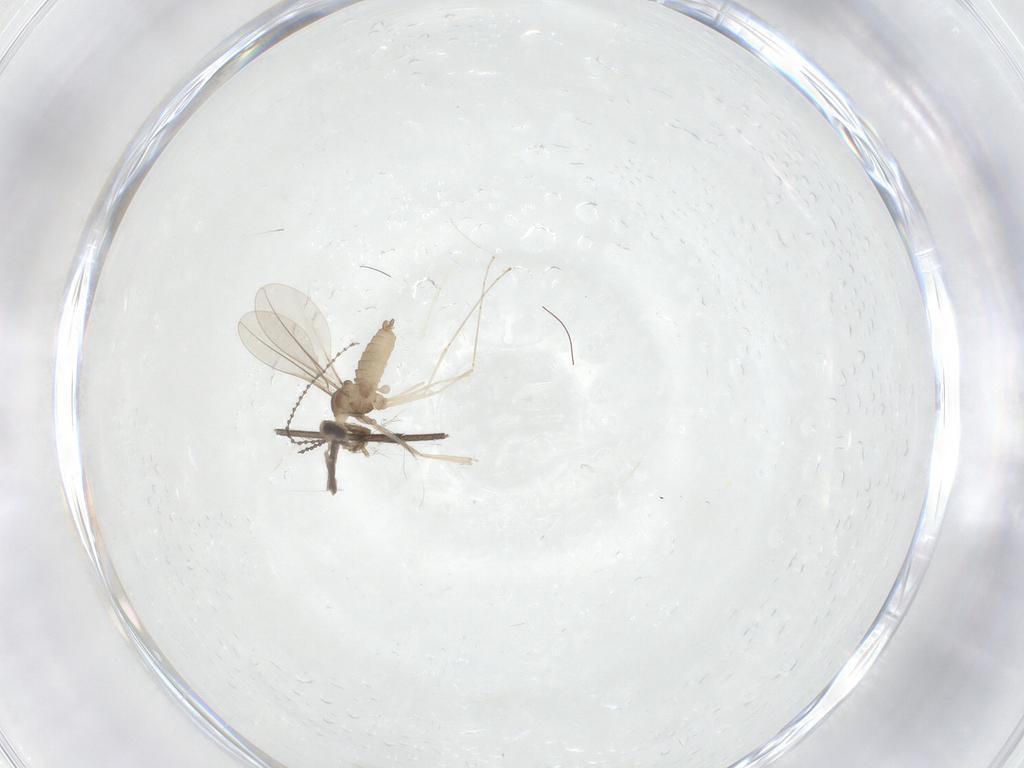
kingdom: Animalia
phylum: Arthropoda
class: Insecta
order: Diptera
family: Cecidomyiidae
